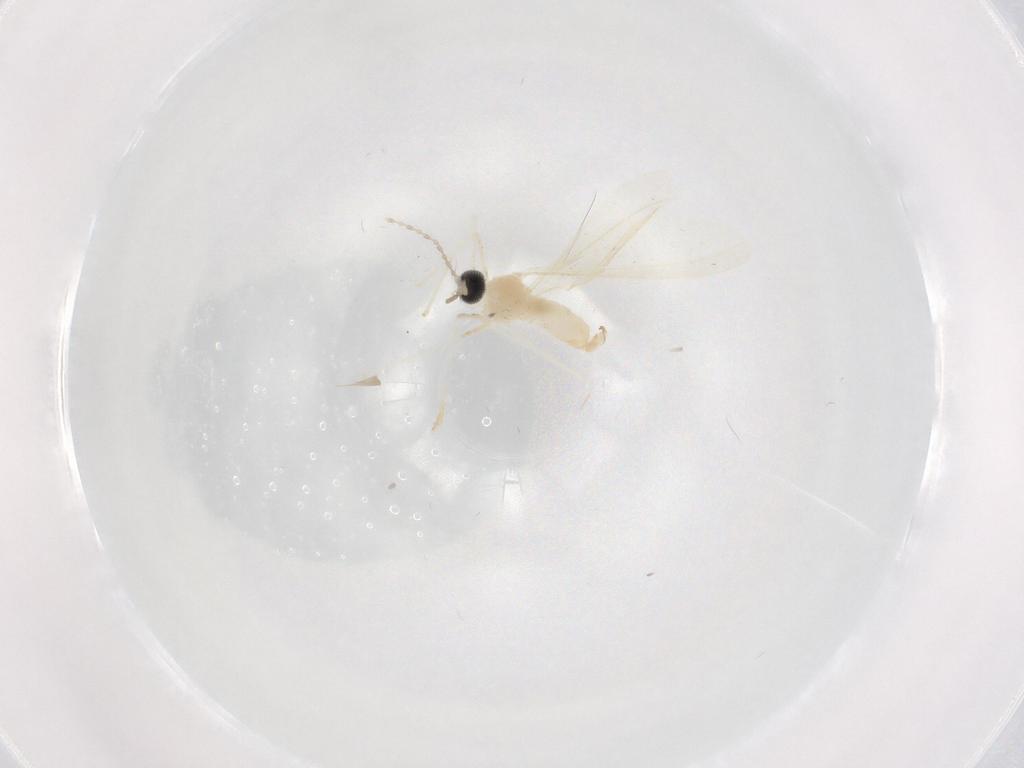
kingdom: Animalia
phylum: Arthropoda
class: Insecta
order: Diptera
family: Cecidomyiidae
